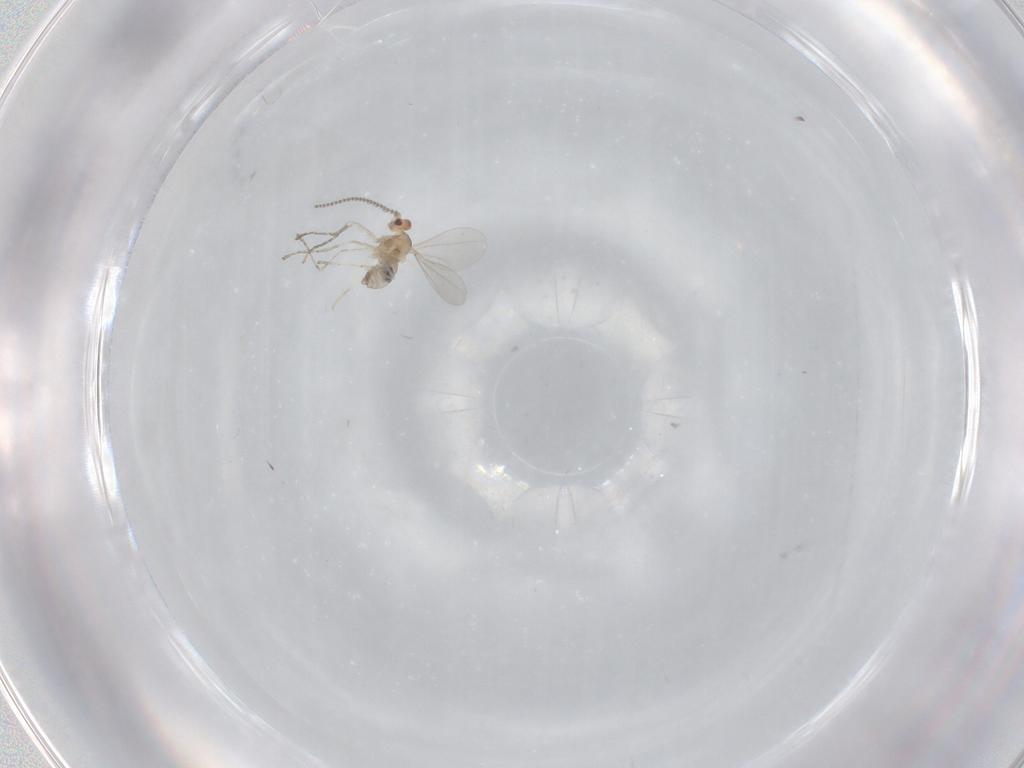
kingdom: Animalia
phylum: Arthropoda
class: Insecta
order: Diptera
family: Cecidomyiidae
